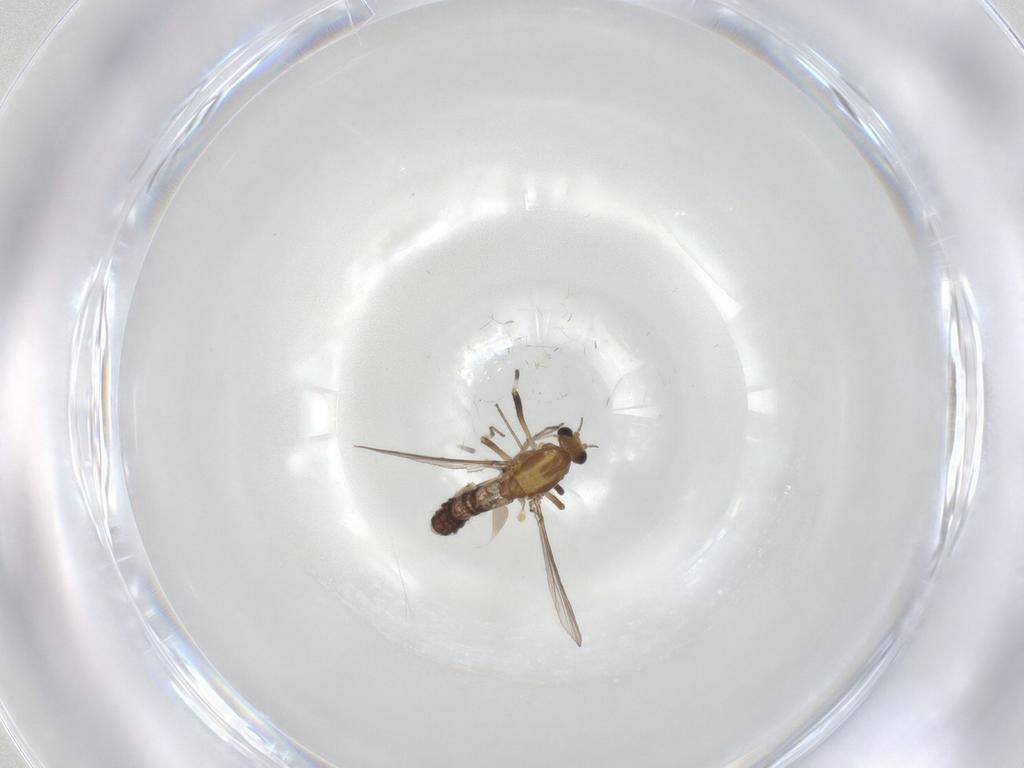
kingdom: Animalia
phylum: Arthropoda
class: Insecta
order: Diptera
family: Chironomidae
